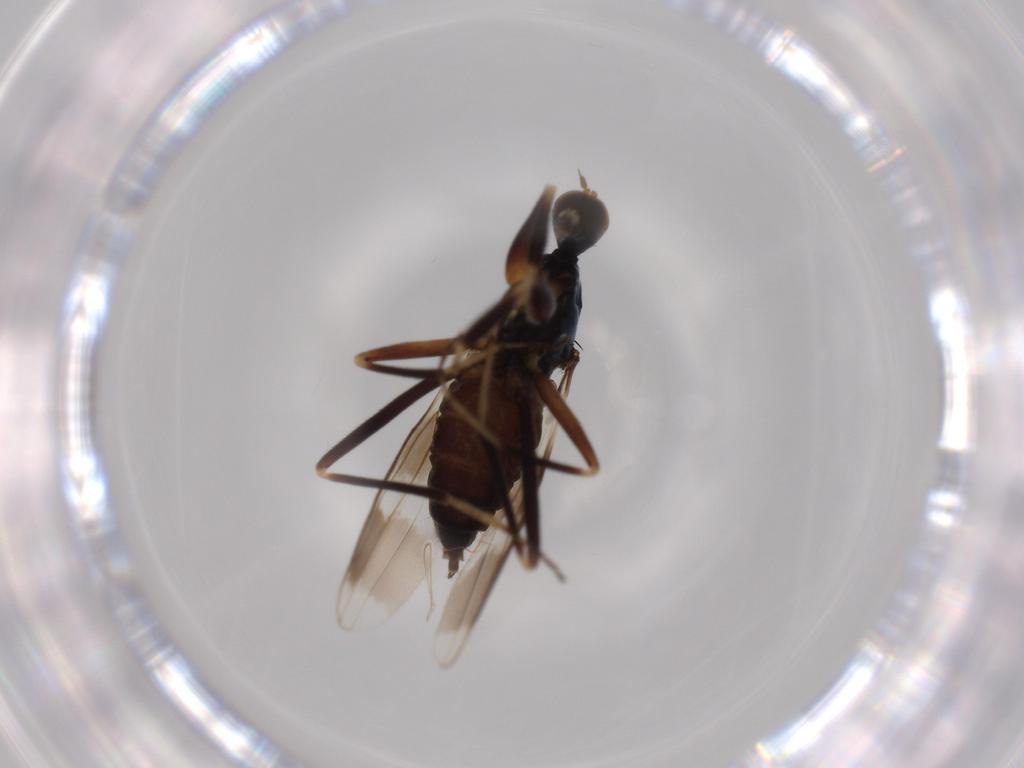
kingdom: Animalia
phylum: Arthropoda
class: Insecta
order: Diptera
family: Hybotidae
